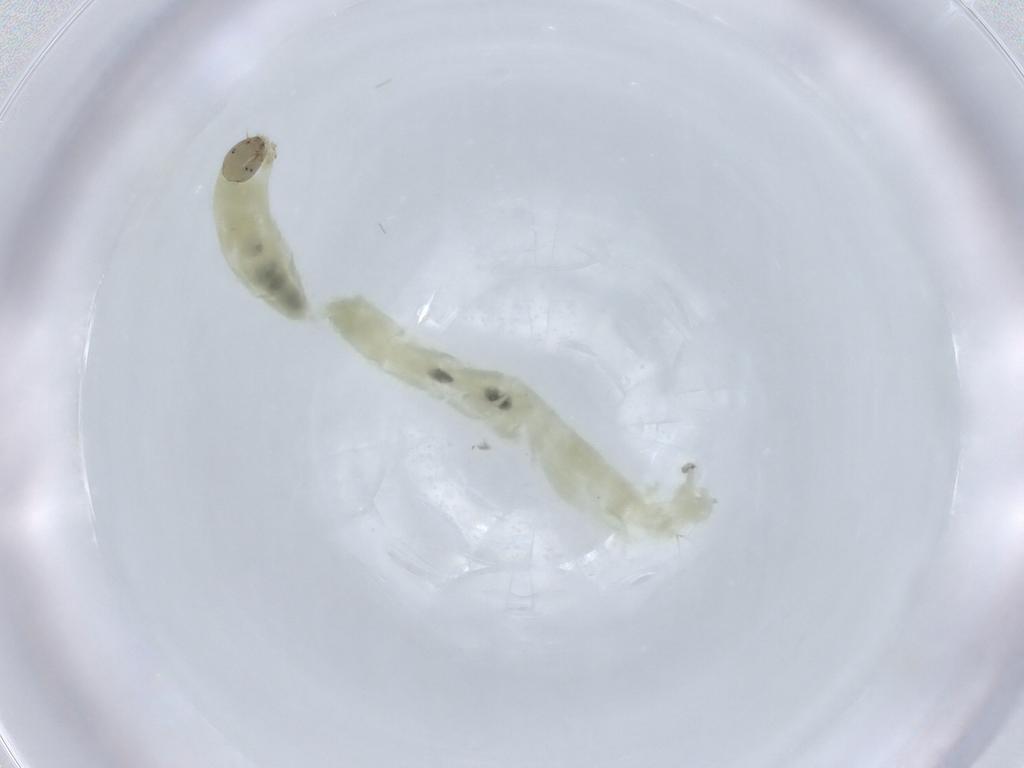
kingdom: Animalia
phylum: Arthropoda
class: Insecta
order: Diptera
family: Chironomidae
